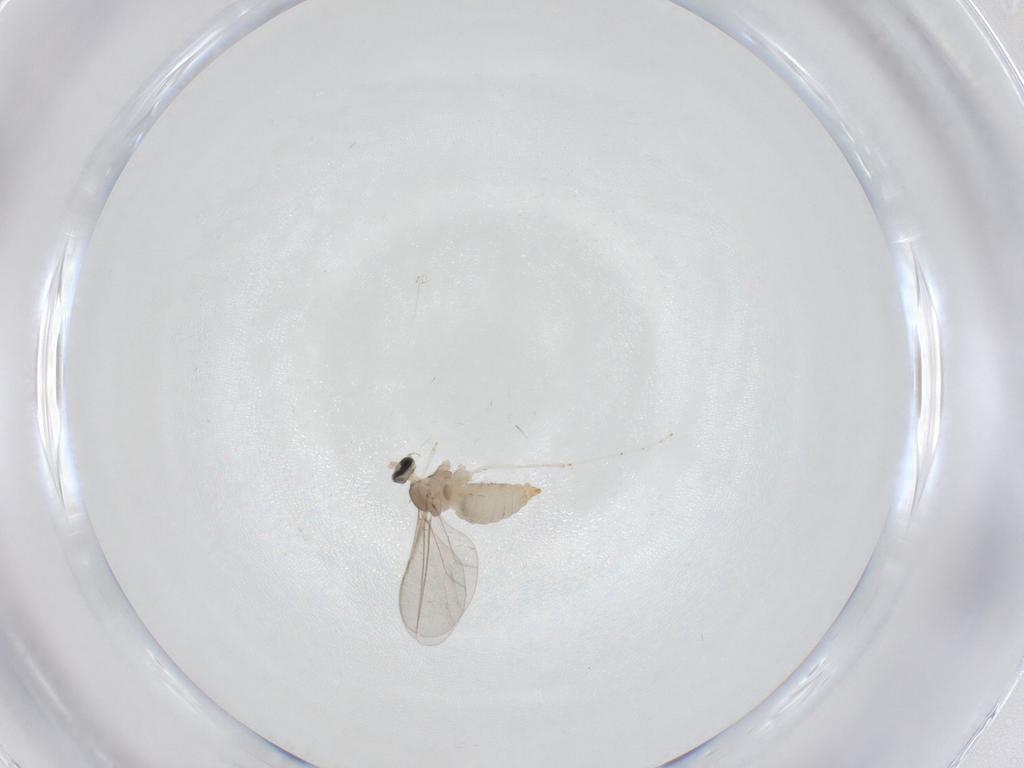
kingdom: Animalia
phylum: Arthropoda
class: Insecta
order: Diptera
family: Cecidomyiidae
